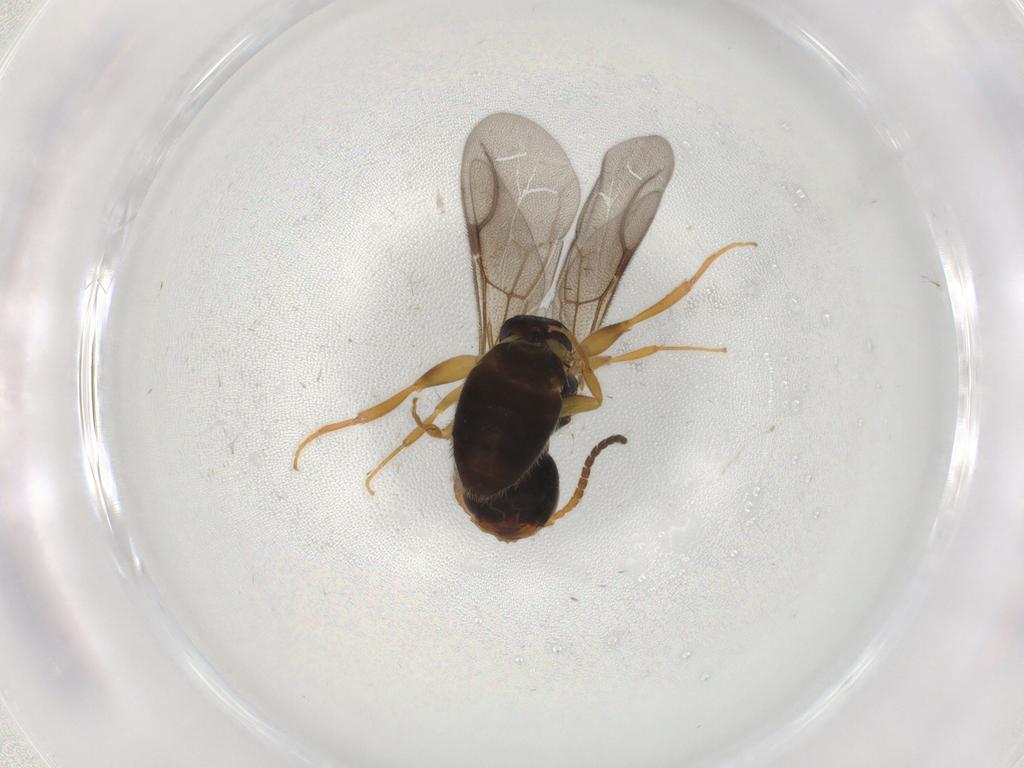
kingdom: Animalia
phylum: Arthropoda
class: Insecta
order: Hymenoptera
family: Bethylidae
